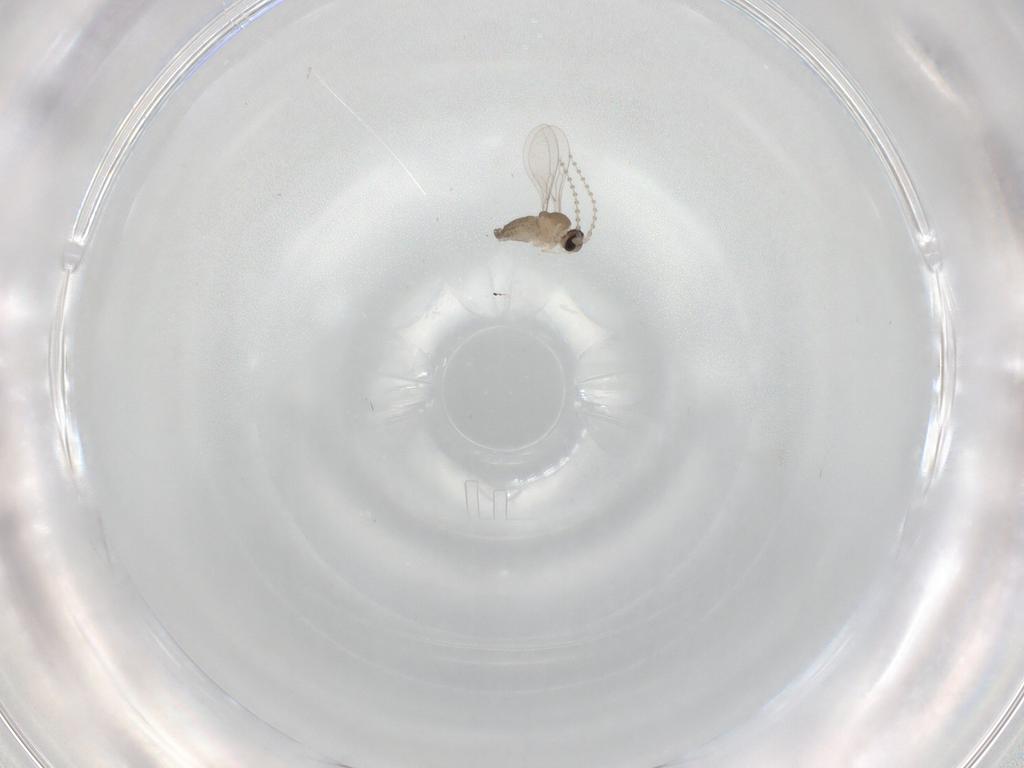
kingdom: Animalia
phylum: Arthropoda
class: Insecta
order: Diptera
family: Cecidomyiidae
